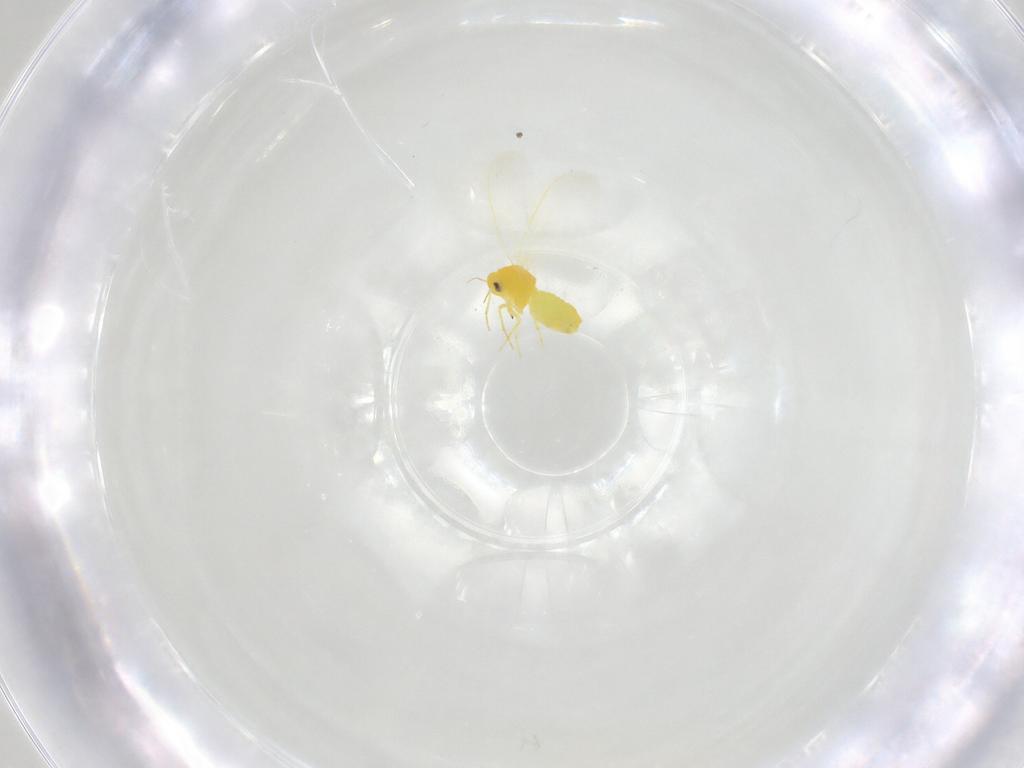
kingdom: Animalia
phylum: Arthropoda
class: Insecta
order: Hemiptera
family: Aleyrodidae
